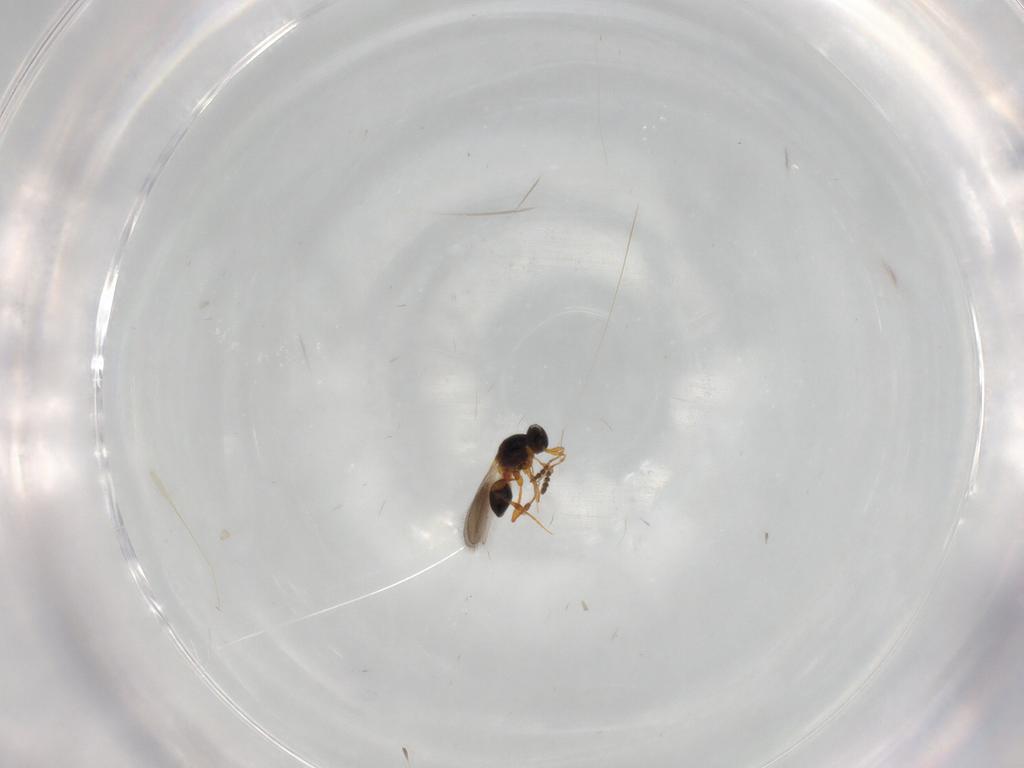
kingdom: Animalia
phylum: Arthropoda
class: Insecta
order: Hymenoptera
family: Platygastridae
